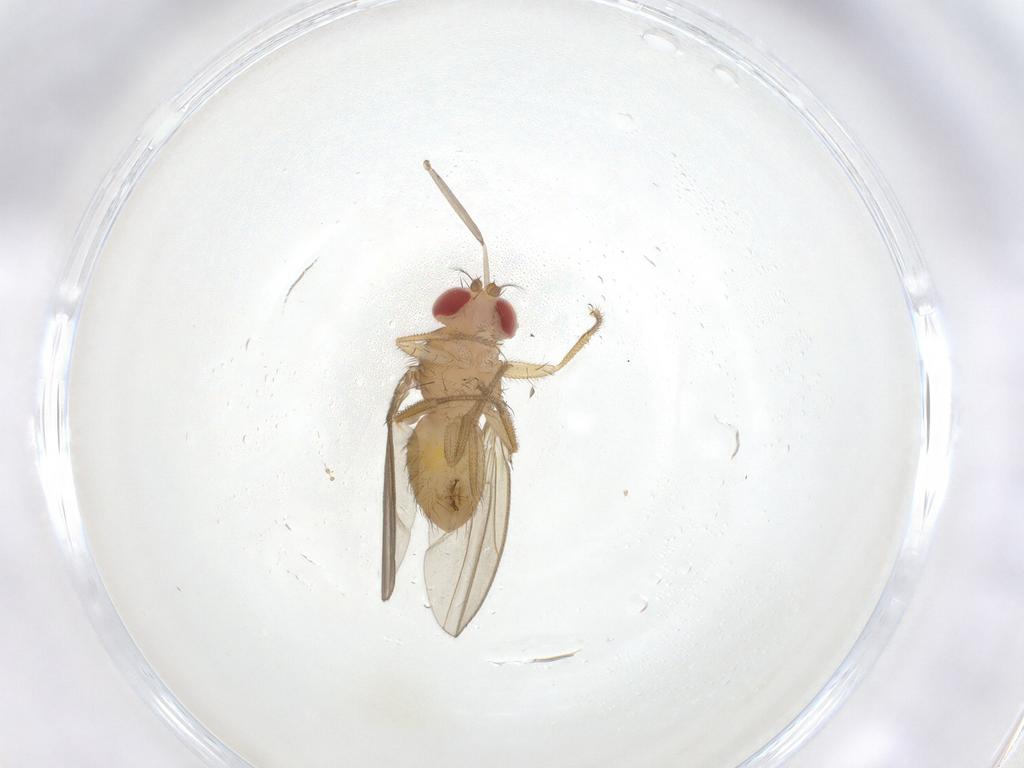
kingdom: Animalia
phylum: Arthropoda
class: Insecta
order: Diptera
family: Drosophilidae
